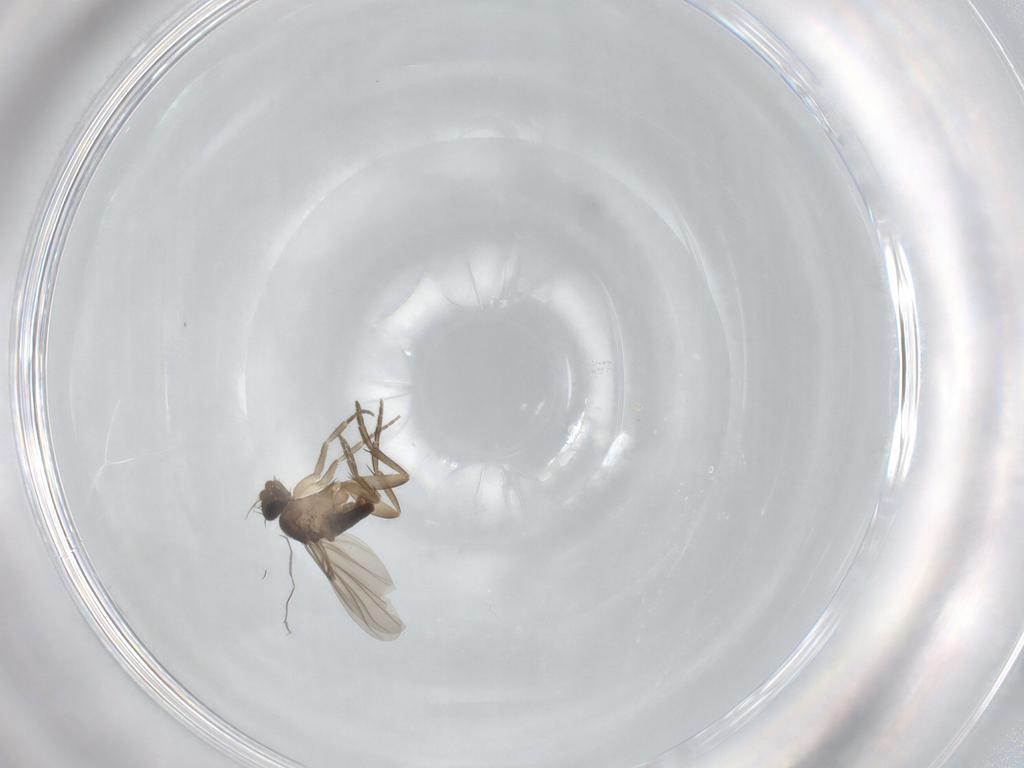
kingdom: Animalia
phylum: Arthropoda
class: Insecta
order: Diptera
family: Phoridae
